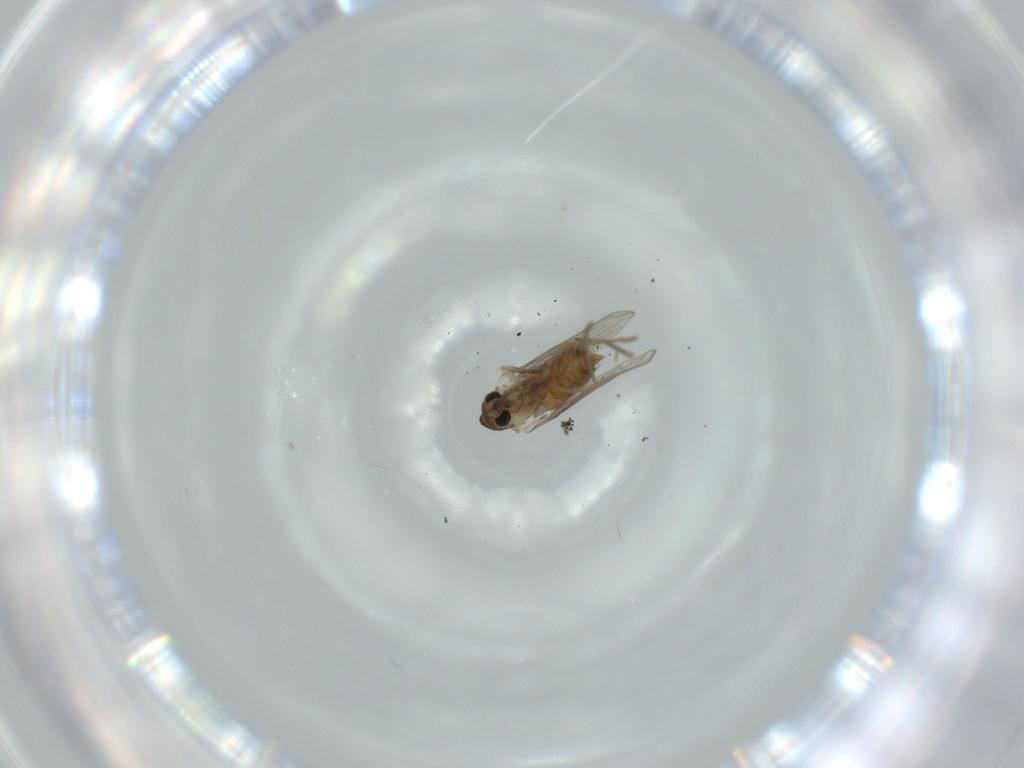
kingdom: Animalia
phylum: Arthropoda
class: Insecta
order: Diptera
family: Psychodidae
